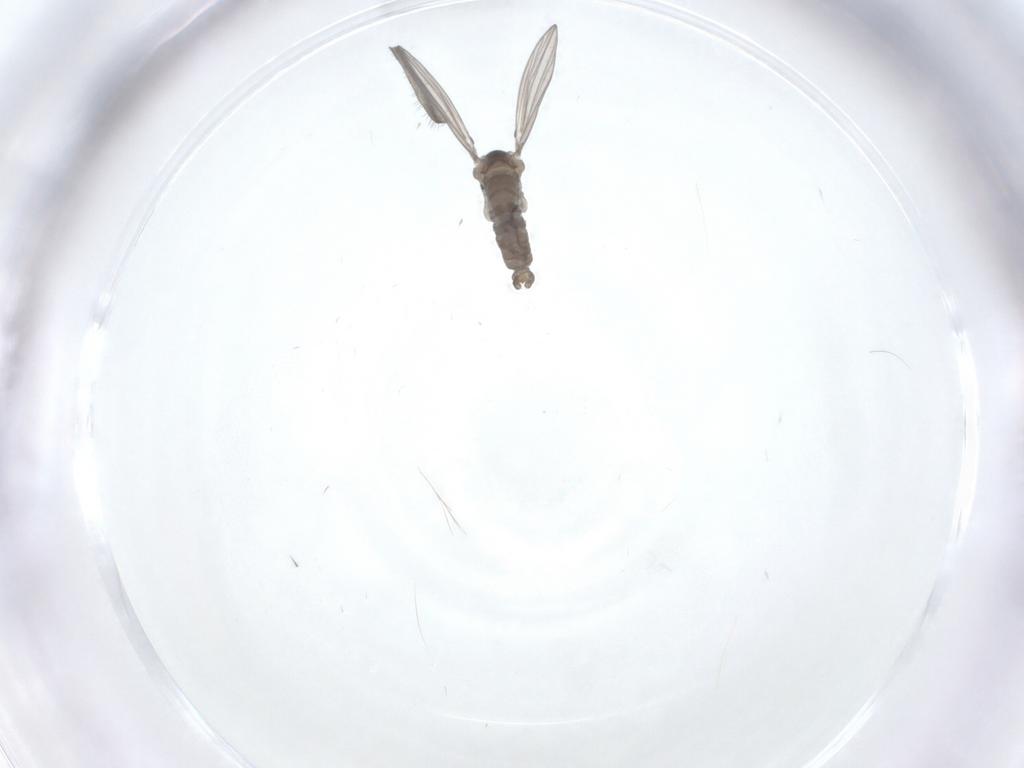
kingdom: Animalia
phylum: Arthropoda
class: Insecta
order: Diptera
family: Psychodidae
